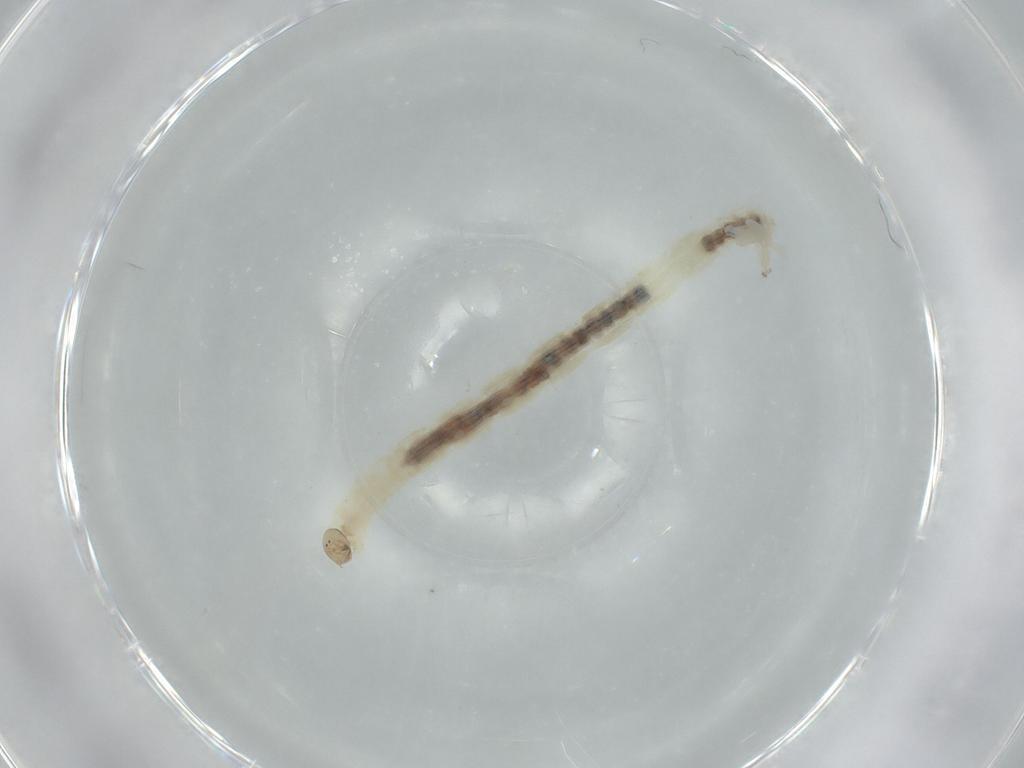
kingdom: Animalia
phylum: Arthropoda
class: Insecta
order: Diptera
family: Chironomidae
